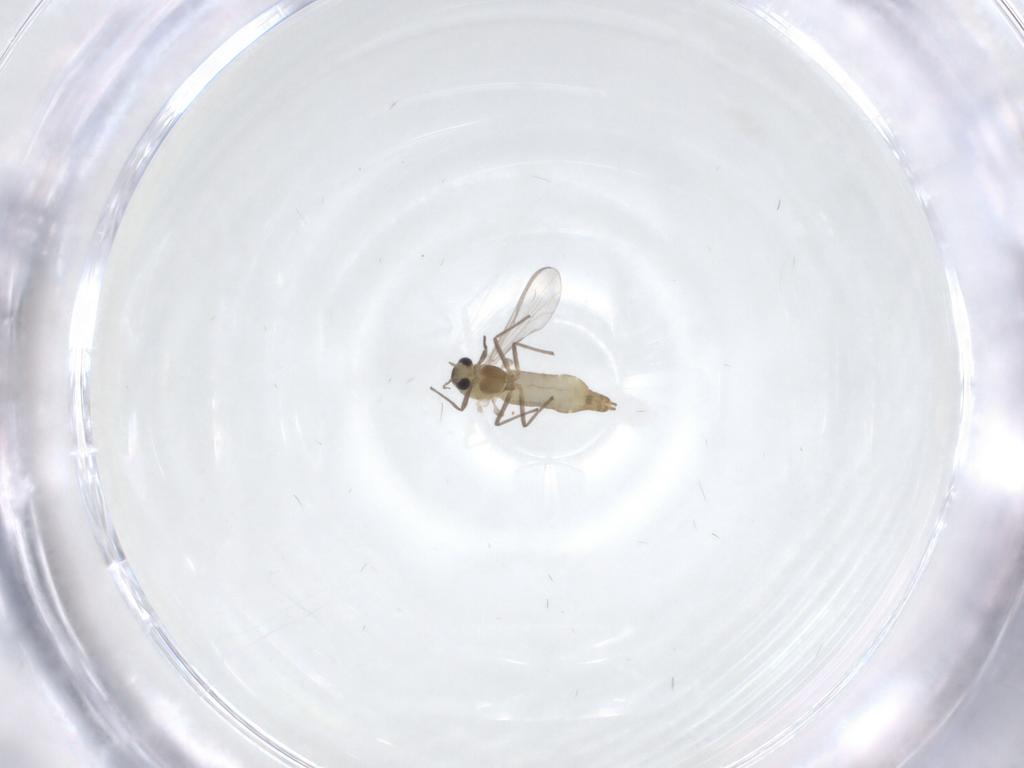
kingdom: Animalia
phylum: Arthropoda
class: Insecta
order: Diptera
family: Chironomidae
